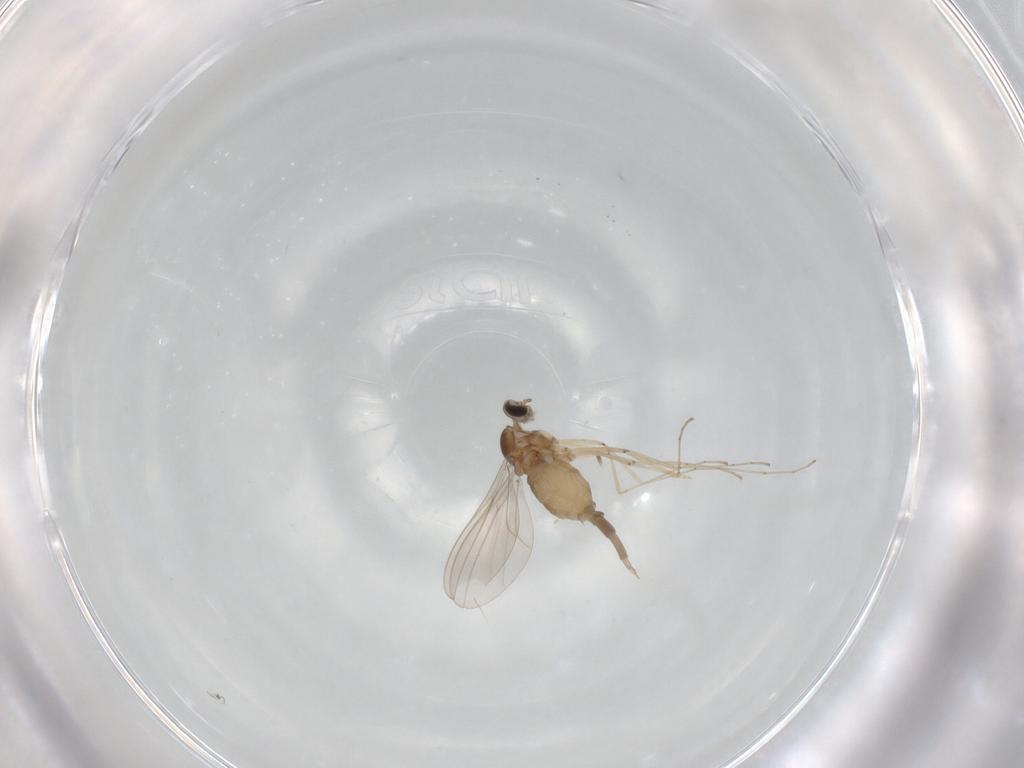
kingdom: Animalia
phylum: Arthropoda
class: Insecta
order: Diptera
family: Cecidomyiidae
